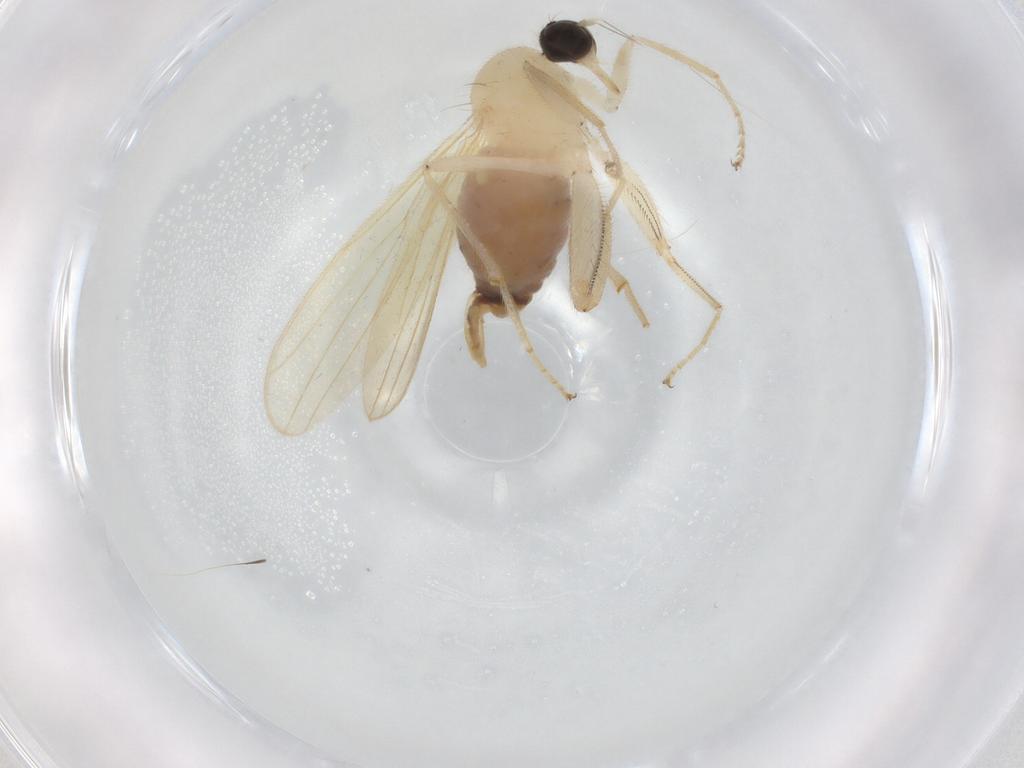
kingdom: Animalia
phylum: Arthropoda
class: Insecta
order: Diptera
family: Hybotidae
